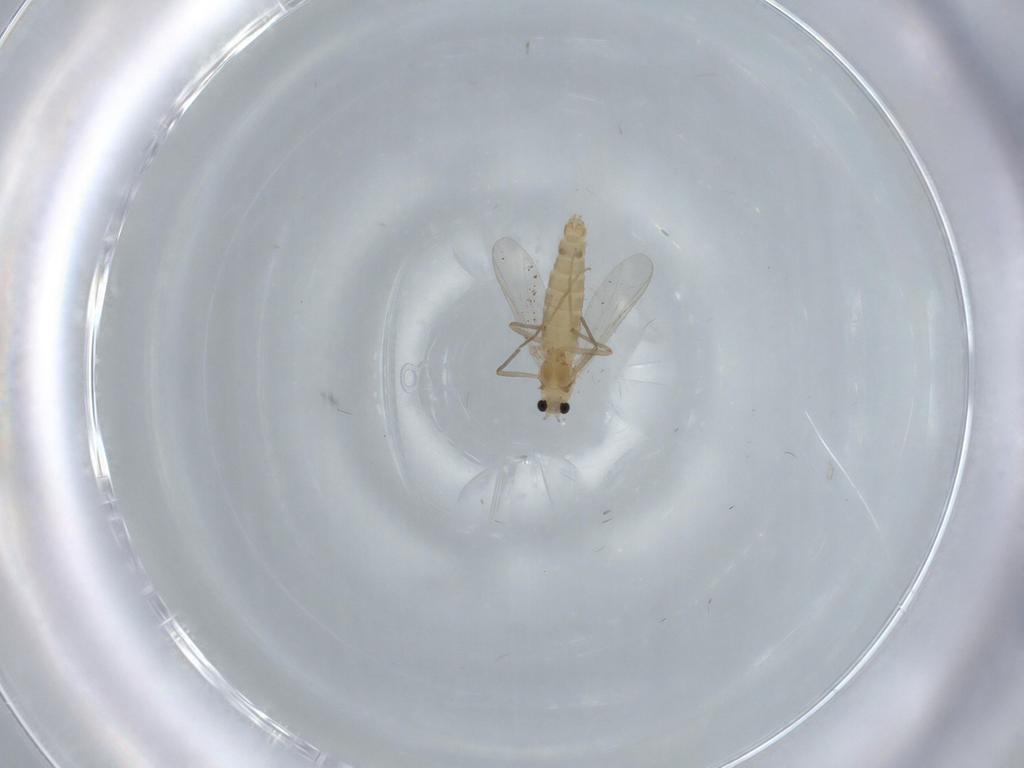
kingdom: Animalia
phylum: Arthropoda
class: Insecta
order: Diptera
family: Chironomidae
